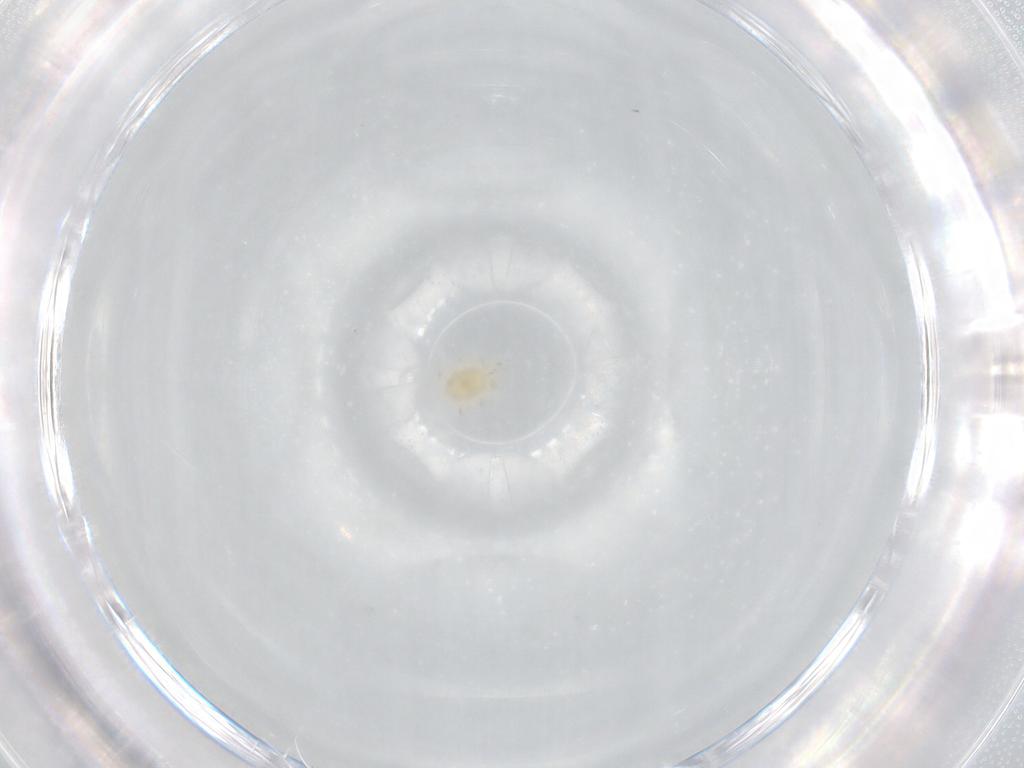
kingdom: Animalia
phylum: Arthropoda
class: Arachnida
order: Mesostigmata
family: Phytoseiidae
